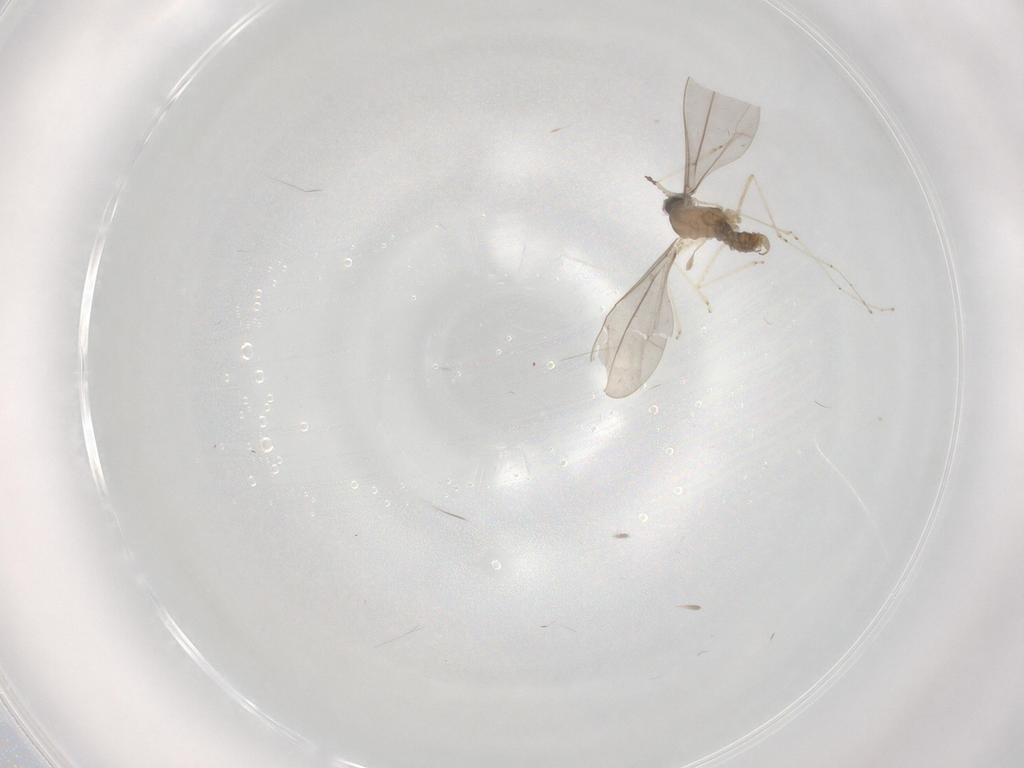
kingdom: Animalia
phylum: Arthropoda
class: Insecta
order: Diptera
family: Cecidomyiidae
